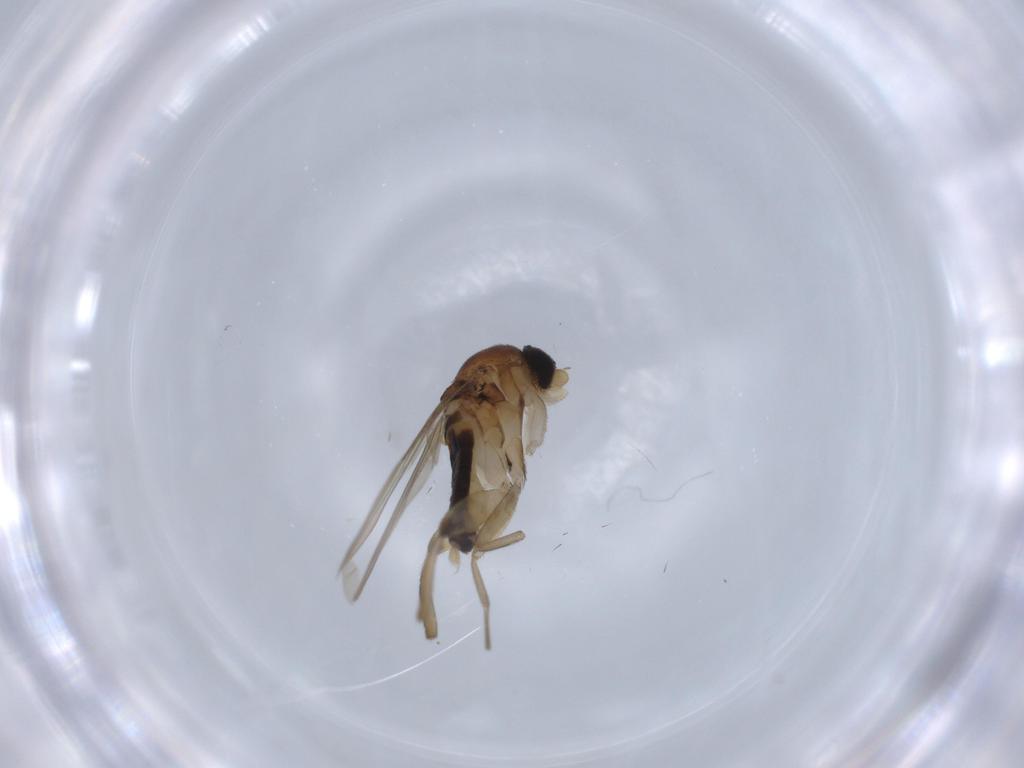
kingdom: Animalia
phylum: Arthropoda
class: Insecta
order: Diptera
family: Phoridae
